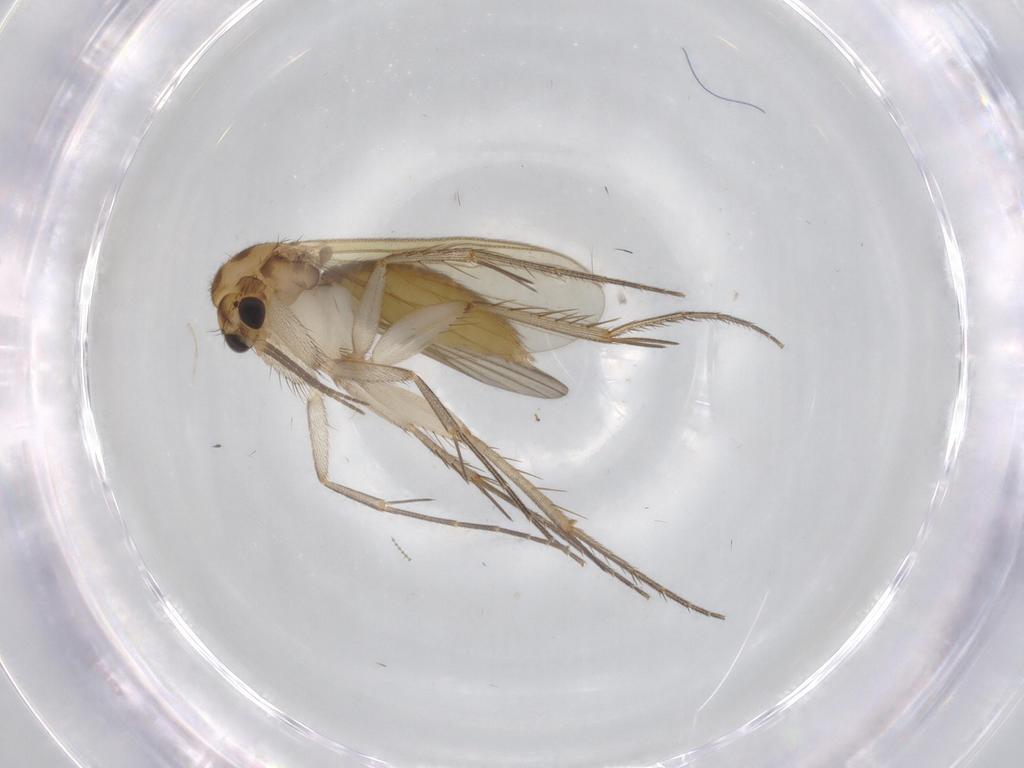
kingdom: Animalia
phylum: Arthropoda
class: Insecta
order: Diptera
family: Mycetophilidae
